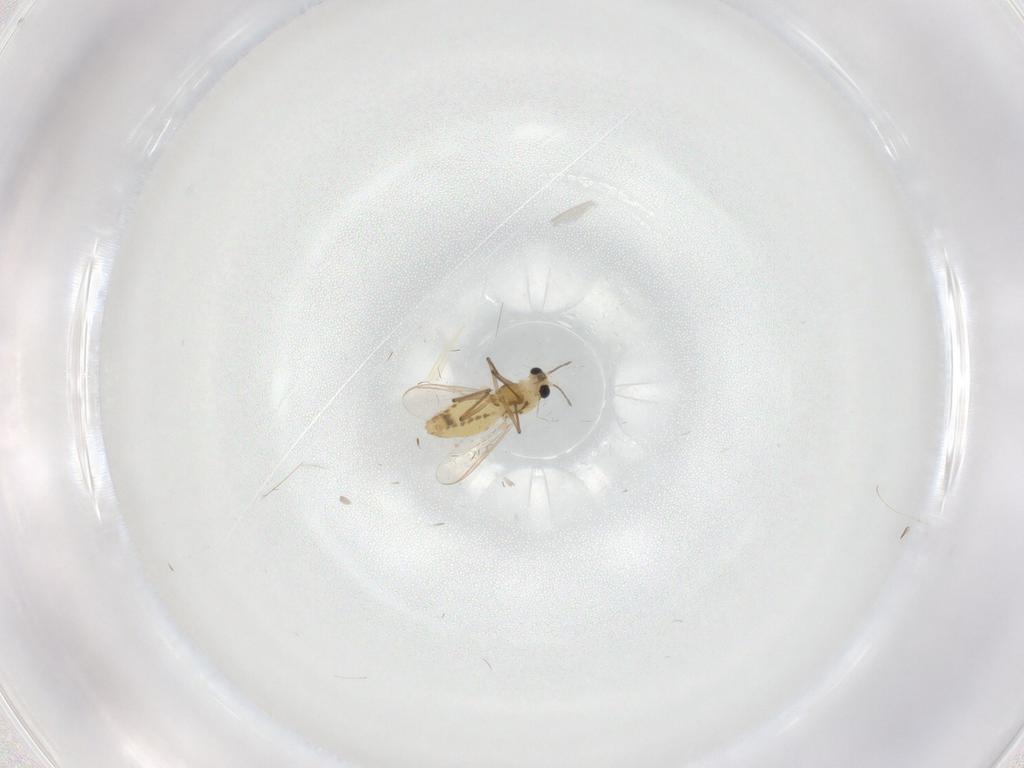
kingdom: Animalia
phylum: Arthropoda
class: Insecta
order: Diptera
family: Chironomidae
